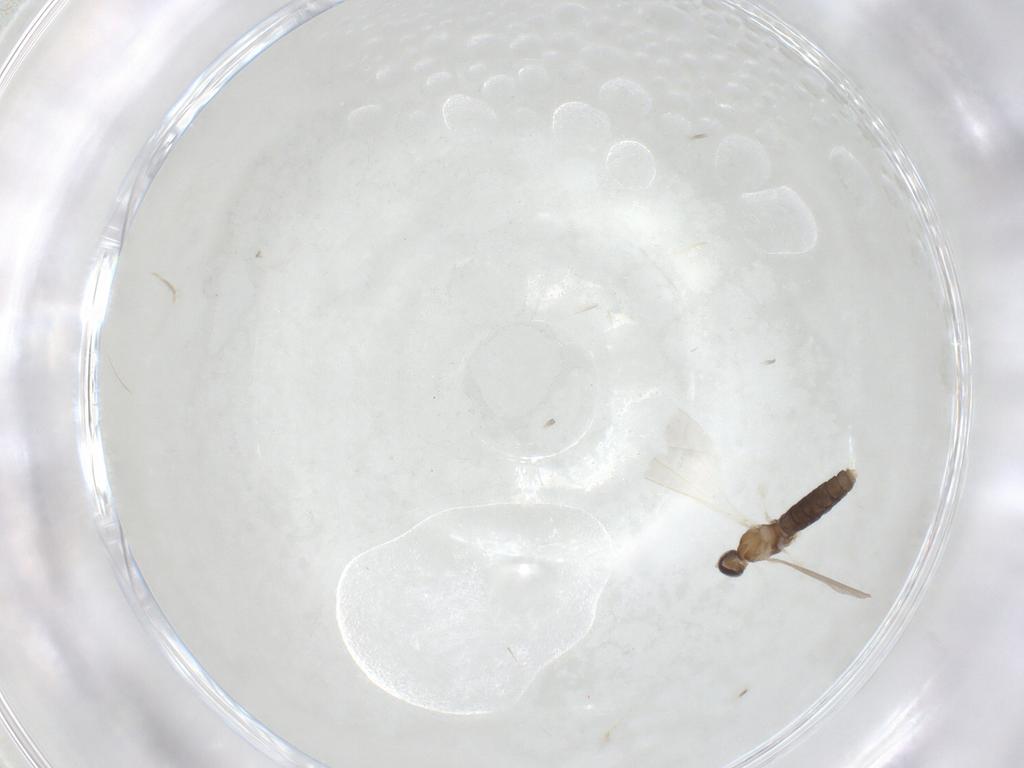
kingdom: Animalia
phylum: Arthropoda
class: Insecta
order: Diptera
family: Cecidomyiidae
